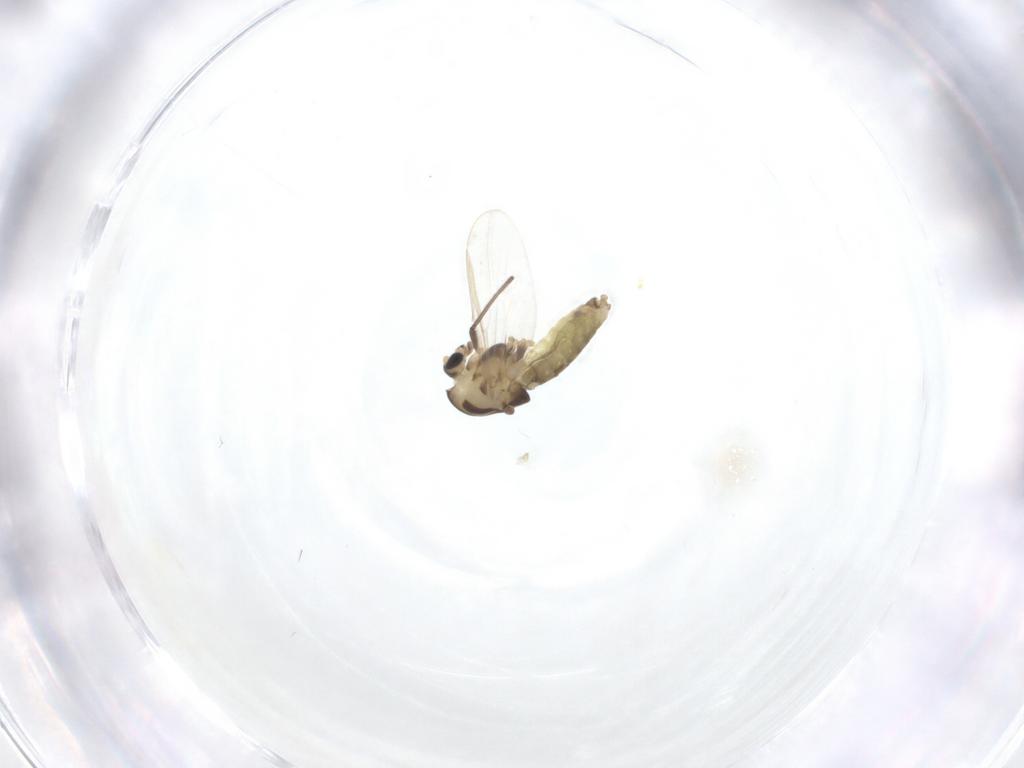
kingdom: Animalia
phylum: Arthropoda
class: Insecta
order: Diptera
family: Chironomidae
